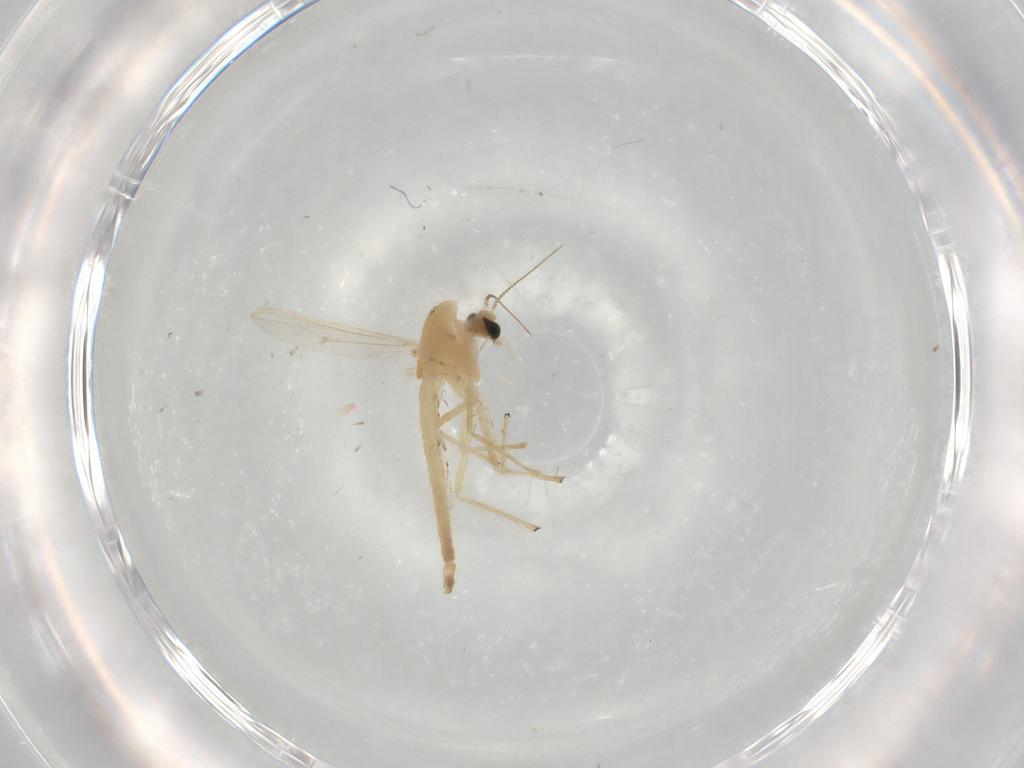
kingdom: Animalia
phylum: Arthropoda
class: Insecta
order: Diptera
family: Chironomidae
